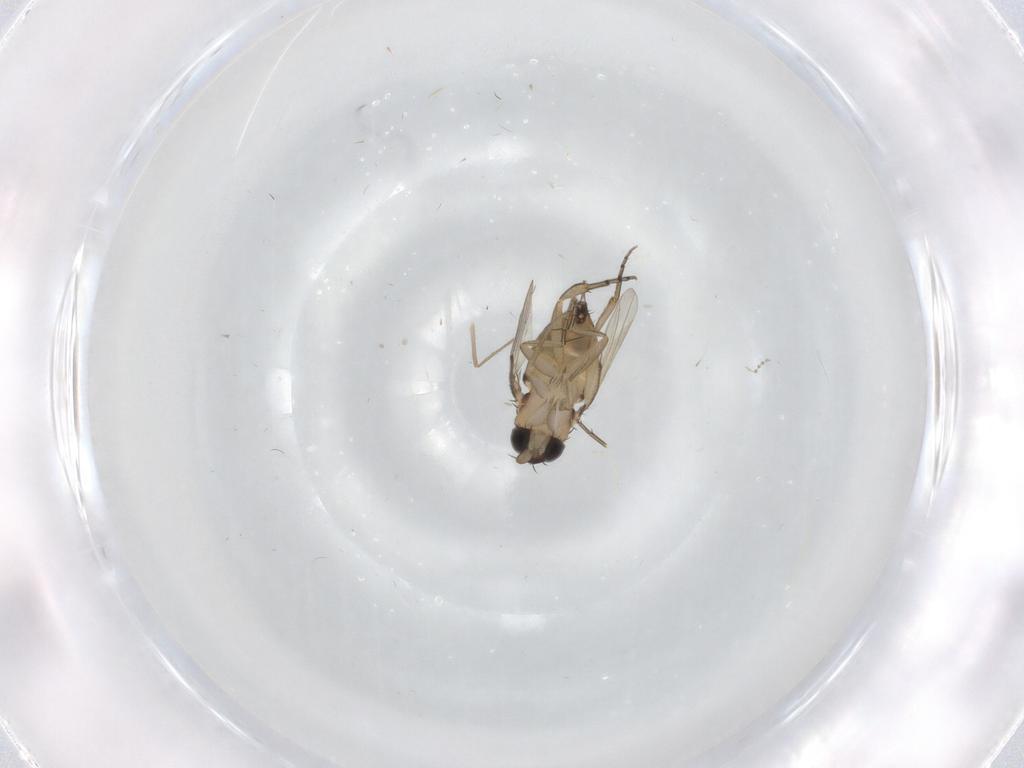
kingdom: Animalia
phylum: Arthropoda
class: Insecta
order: Diptera
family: Phoridae
